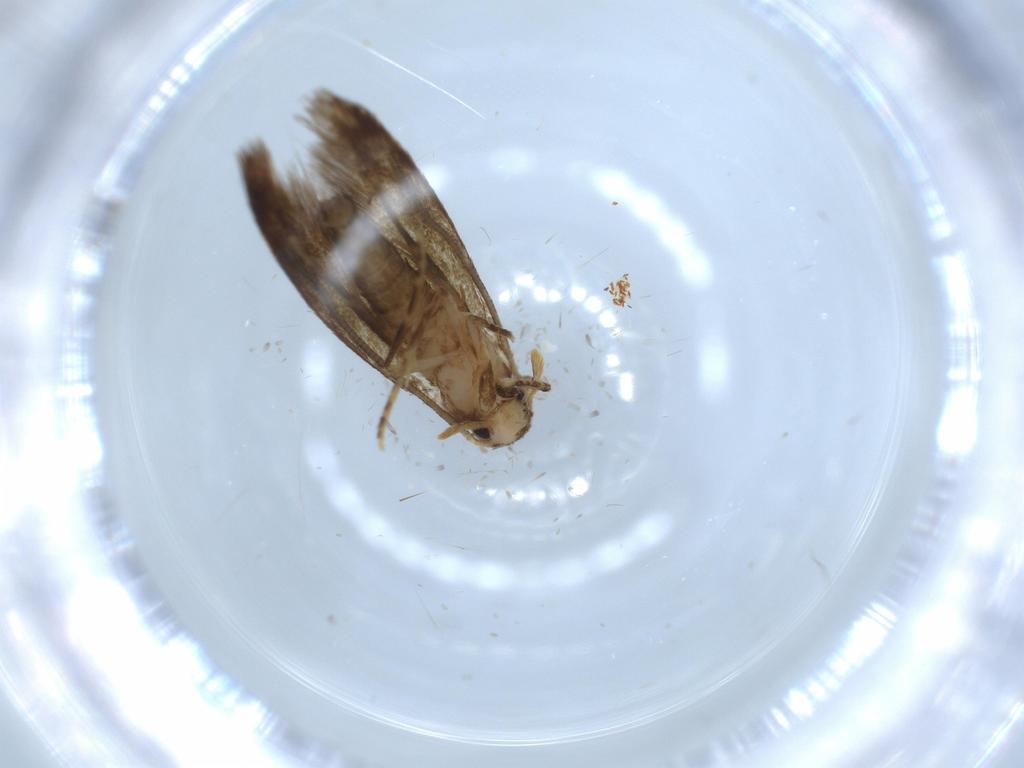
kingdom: Animalia
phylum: Arthropoda
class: Insecta
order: Lepidoptera
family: Tineidae
